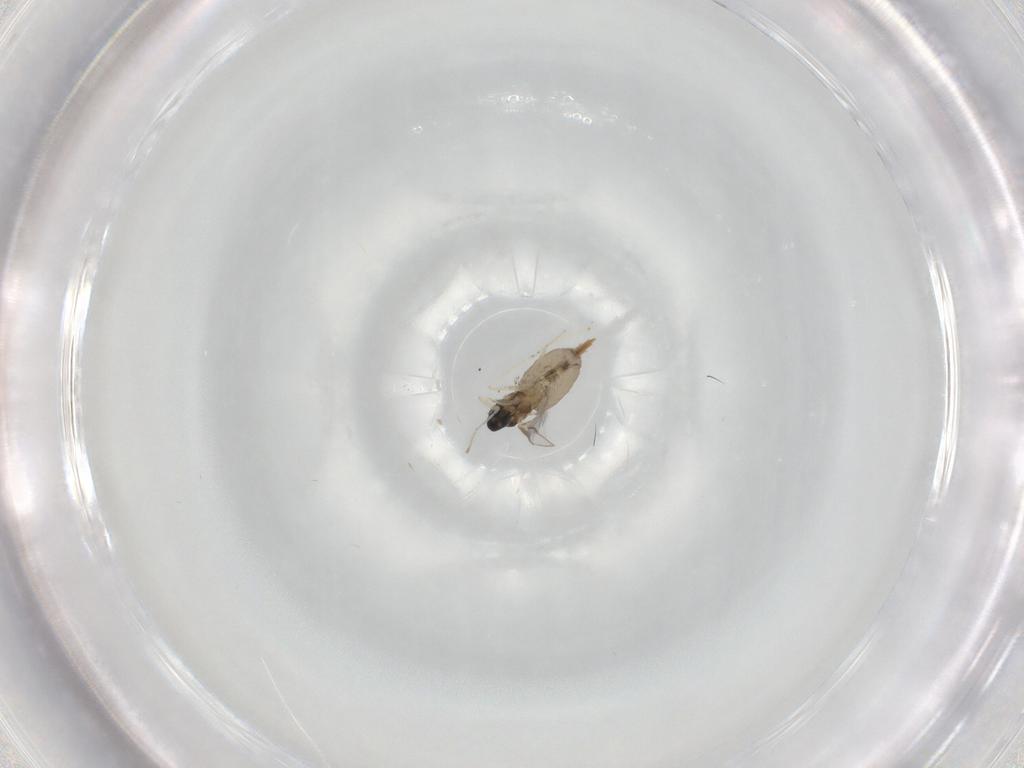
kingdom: Animalia
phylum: Arthropoda
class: Insecta
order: Diptera
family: Cecidomyiidae
